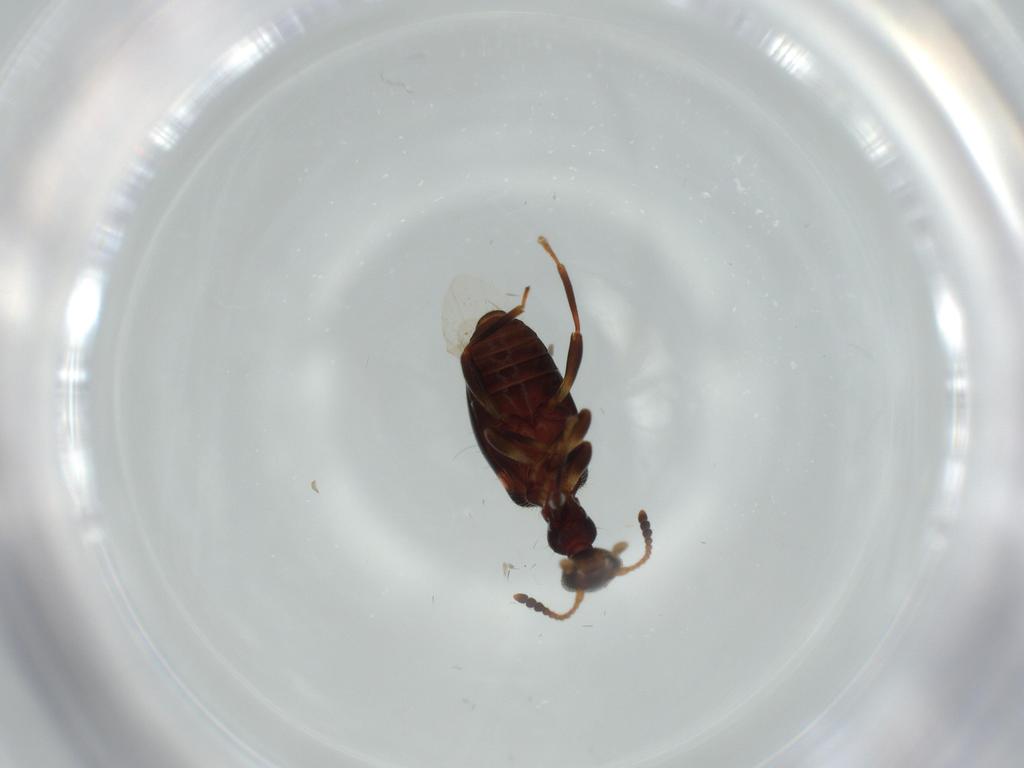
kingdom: Animalia
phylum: Arthropoda
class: Insecta
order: Coleoptera
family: Anthicidae
